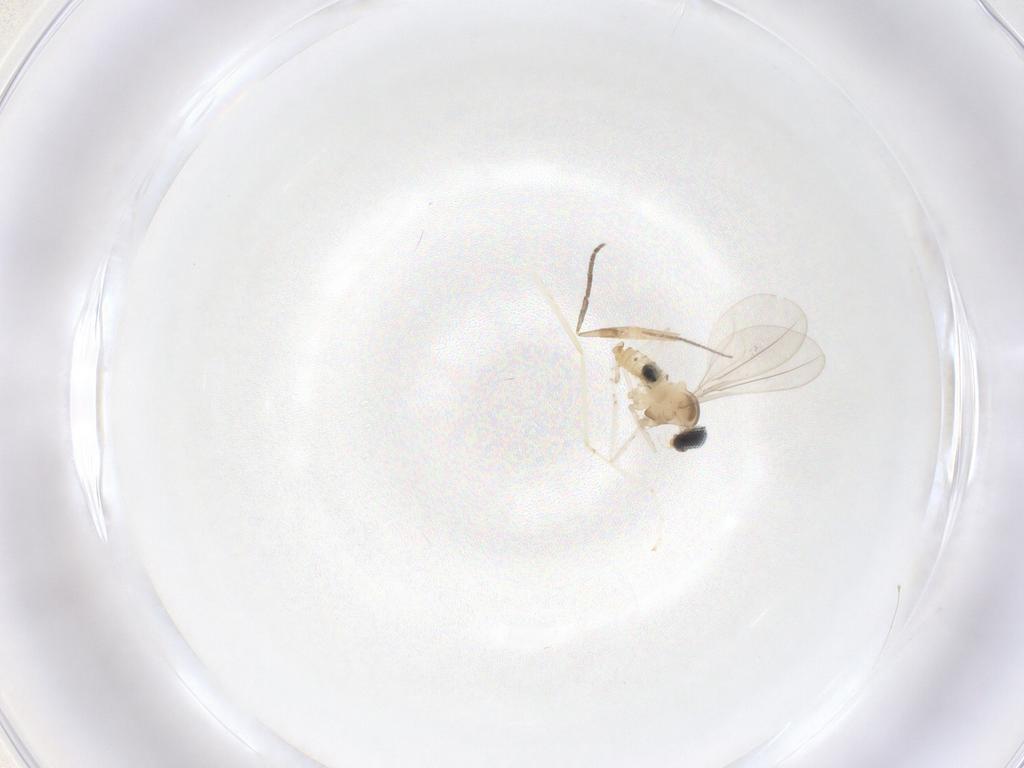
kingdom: Animalia
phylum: Arthropoda
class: Insecta
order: Diptera
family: Cecidomyiidae
